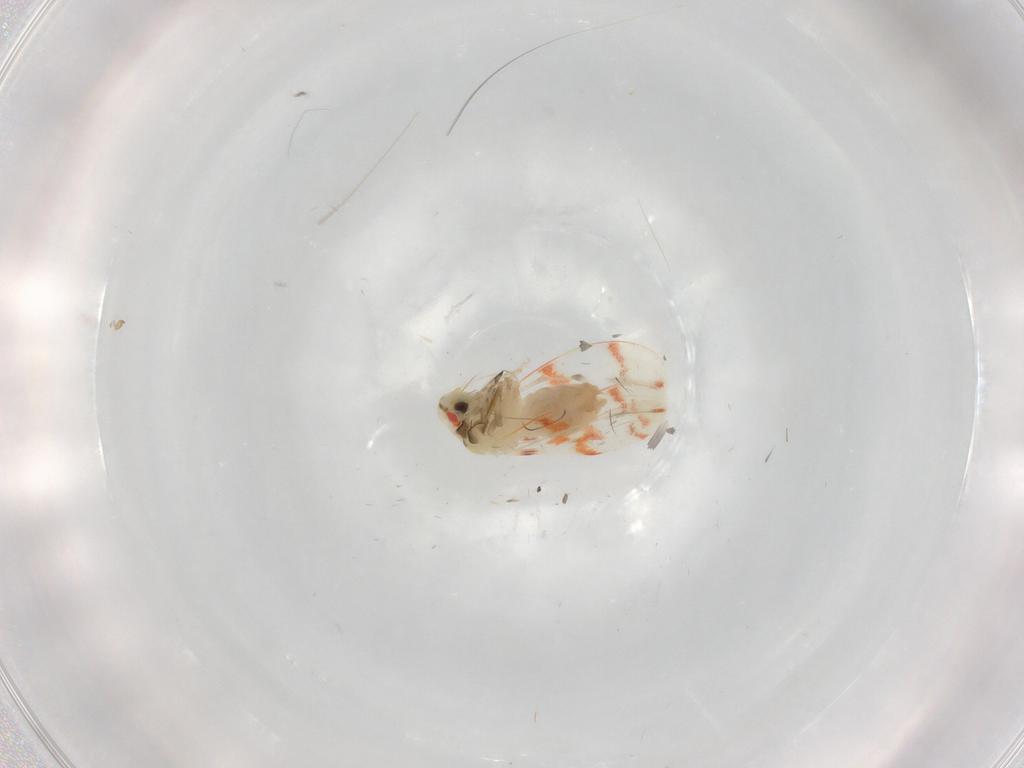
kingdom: Animalia
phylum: Arthropoda
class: Insecta
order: Hemiptera
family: Aleyrodidae
